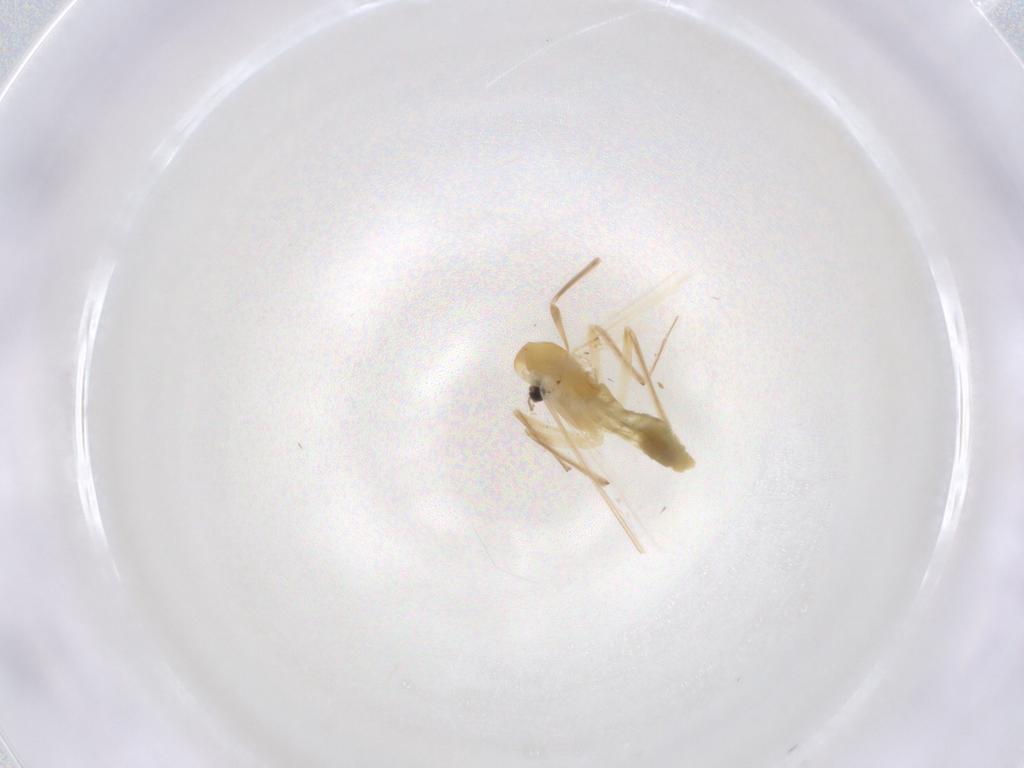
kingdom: Animalia
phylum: Arthropoda
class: Insecta
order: Diptera
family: Chironomidae
